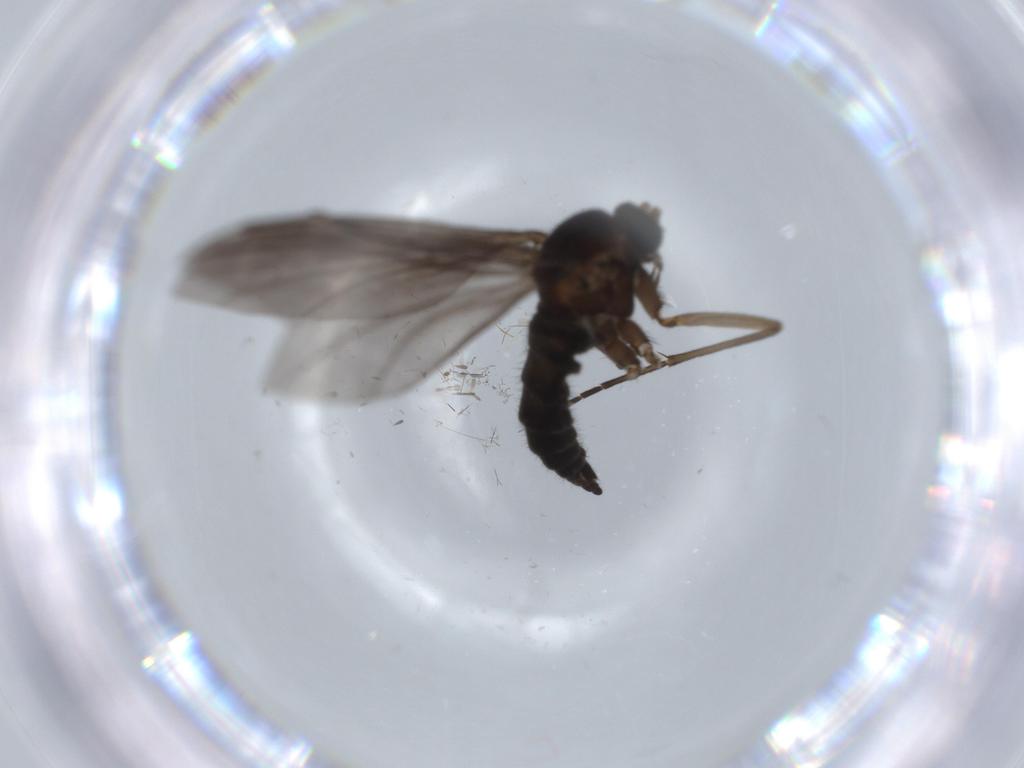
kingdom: Animalia
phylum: Arthropoda
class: Insecta
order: Diptera
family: Sciaridae
